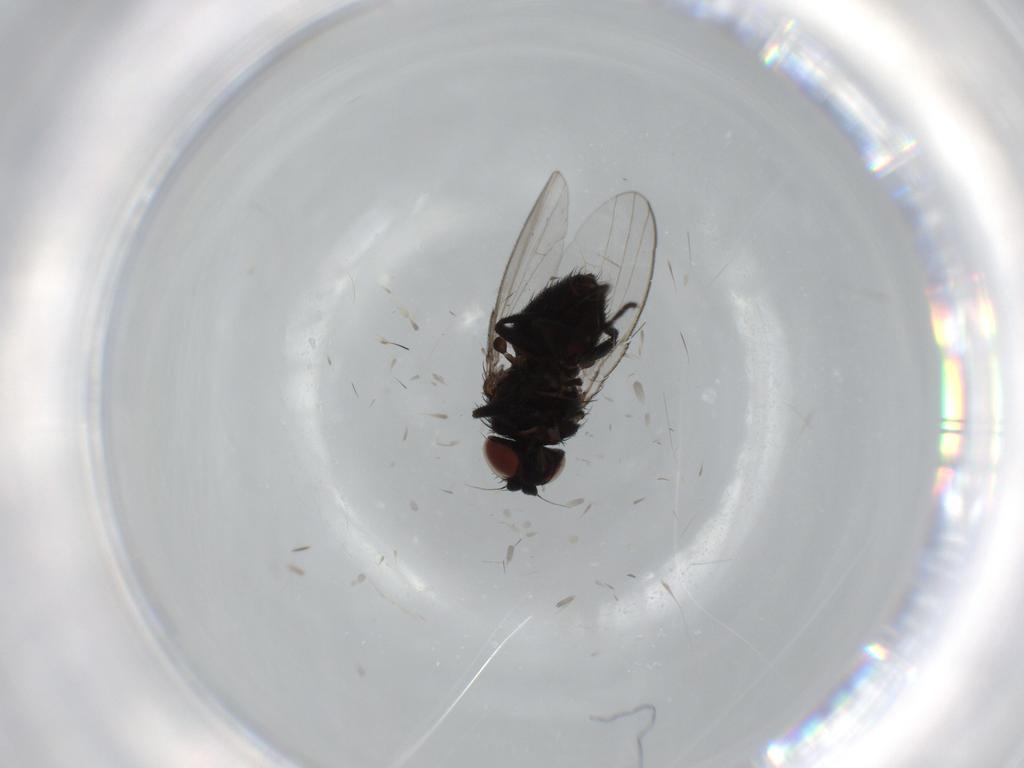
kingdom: Animalia
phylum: Arthropoda
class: Insecta
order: Diptera
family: Milichiidae
